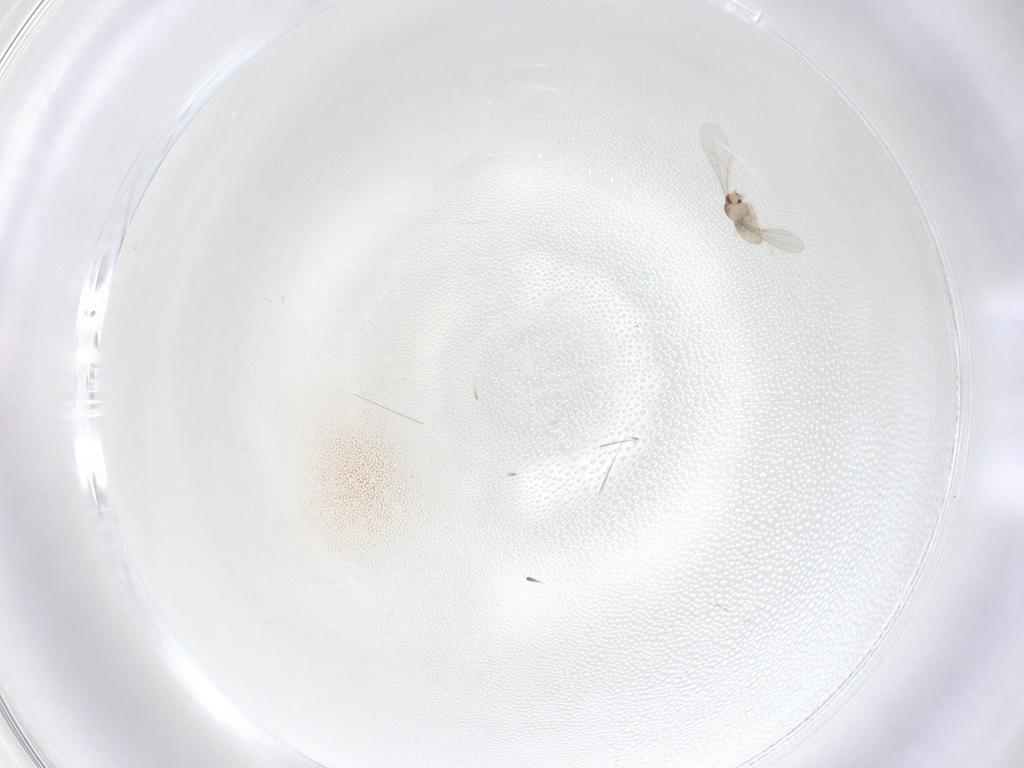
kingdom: Animalia
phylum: Arthropoda
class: Insecta
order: Diptera
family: Cecidomyiidae
